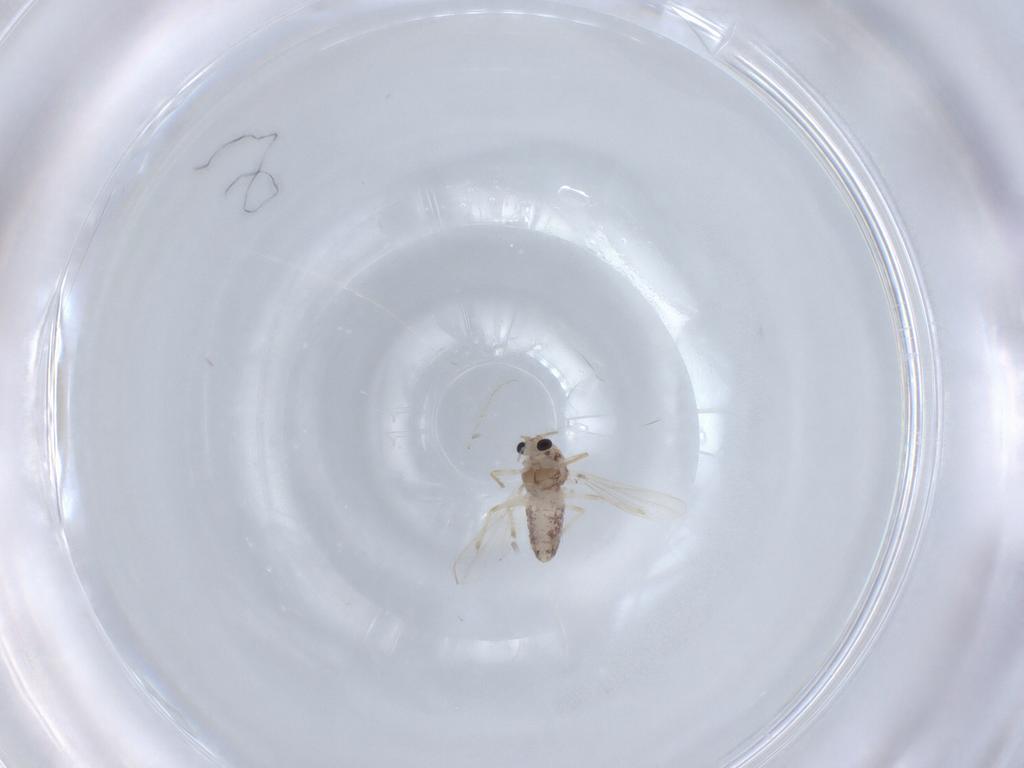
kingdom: Animalia
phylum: Arthropoda
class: Insecta
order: Diptera
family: Chironomidae
